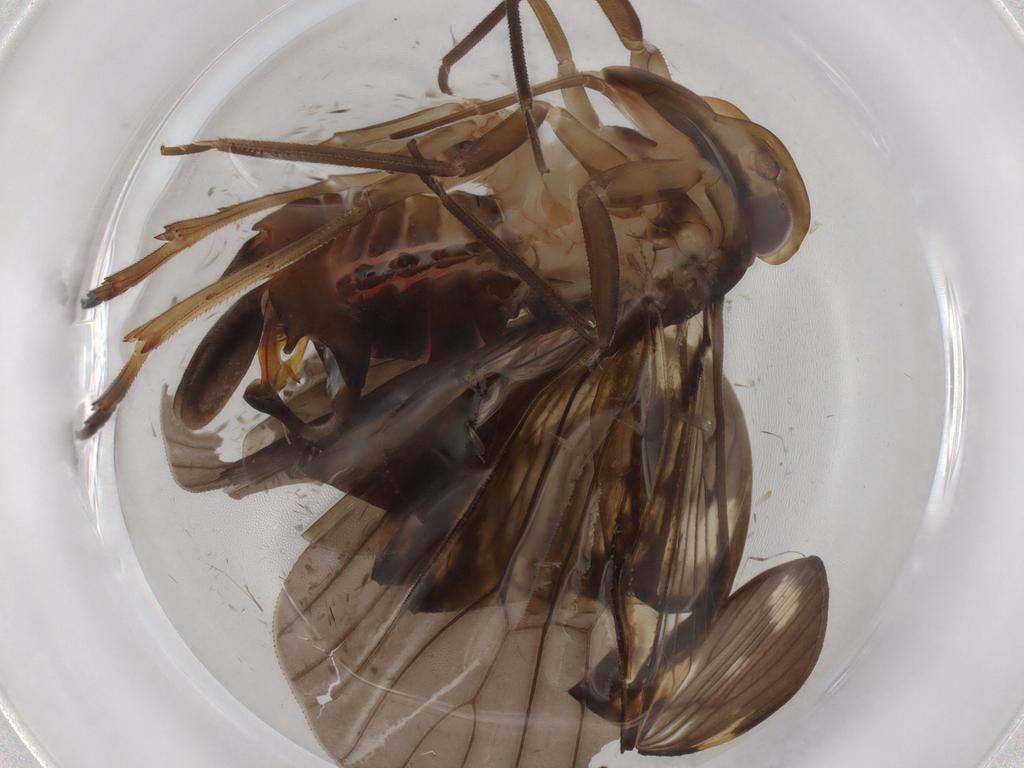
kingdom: Animalia
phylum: Arthropoda
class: Insecta
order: Hemiptera
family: Cixiidae
